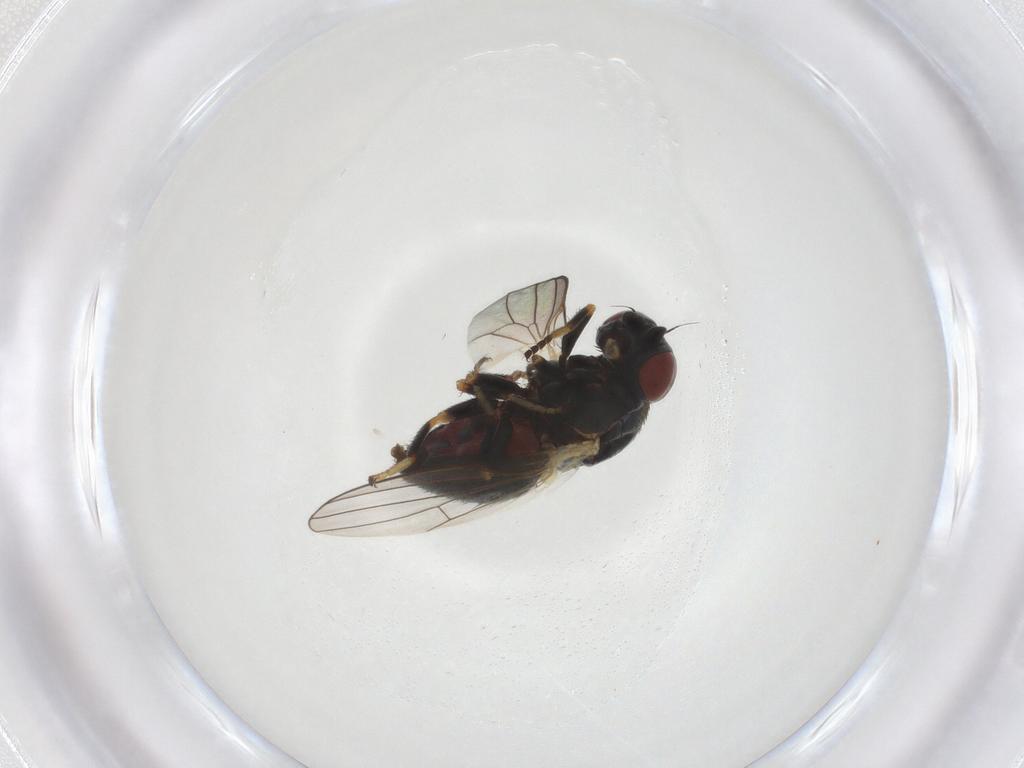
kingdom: Animalia
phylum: Arthropoda
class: Insecta
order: Diptera
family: Chamaemyiidae
